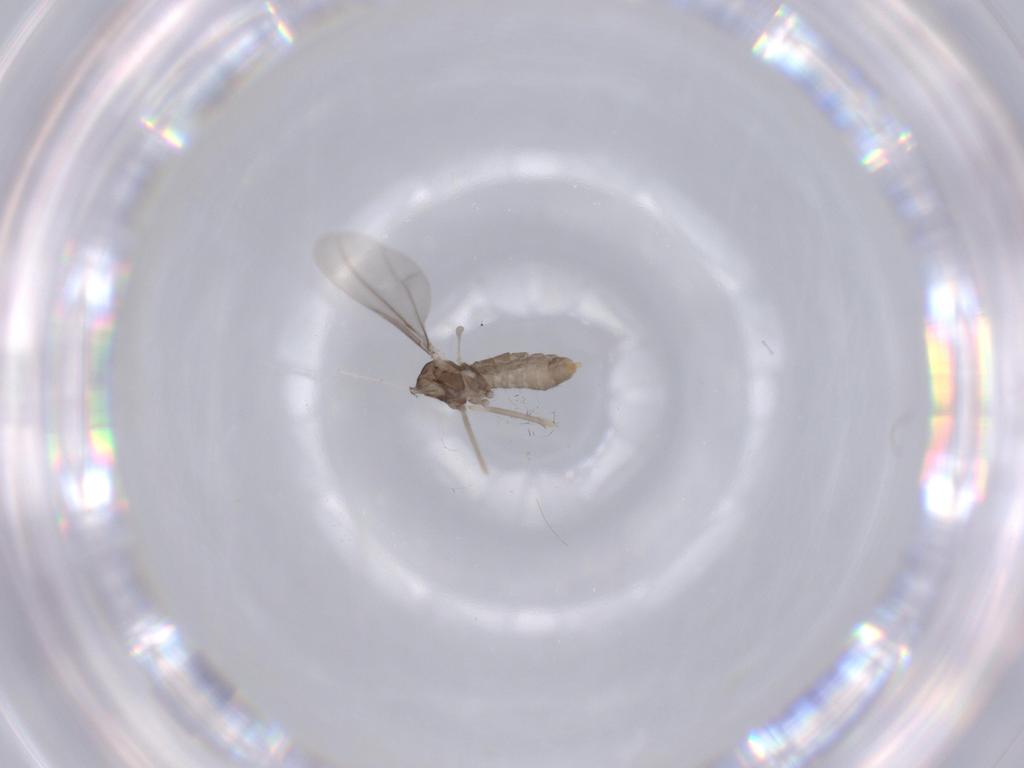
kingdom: Animalia
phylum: Arthropoda
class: Insecta
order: Diptera
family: Cecidomyiidae
